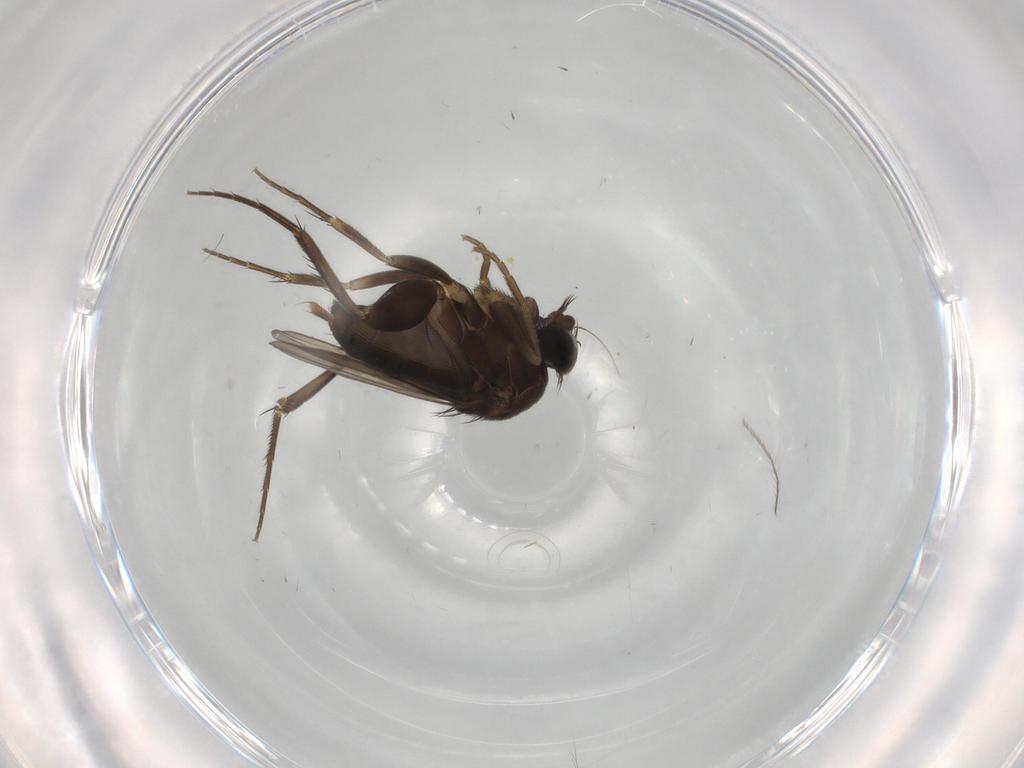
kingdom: Animalia
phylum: Arthropoda
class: Insecta
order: Diptera
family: Phoridae
